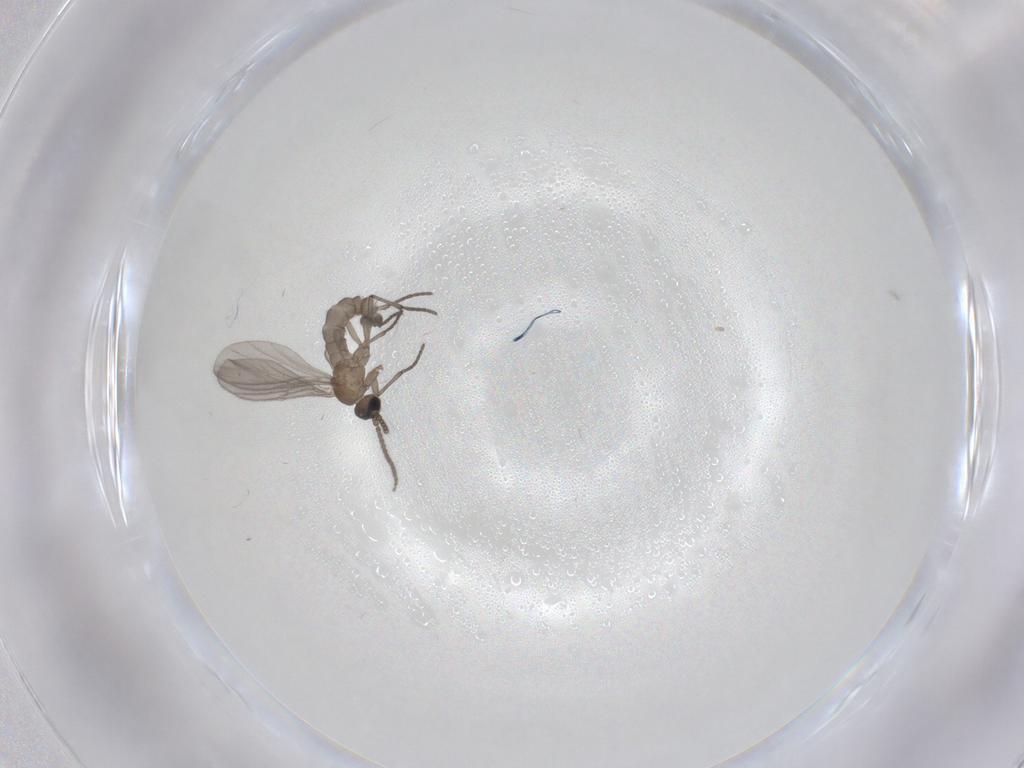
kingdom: Animalia
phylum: Arthropoda
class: Insecta
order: Diptera
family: Sciaridae
